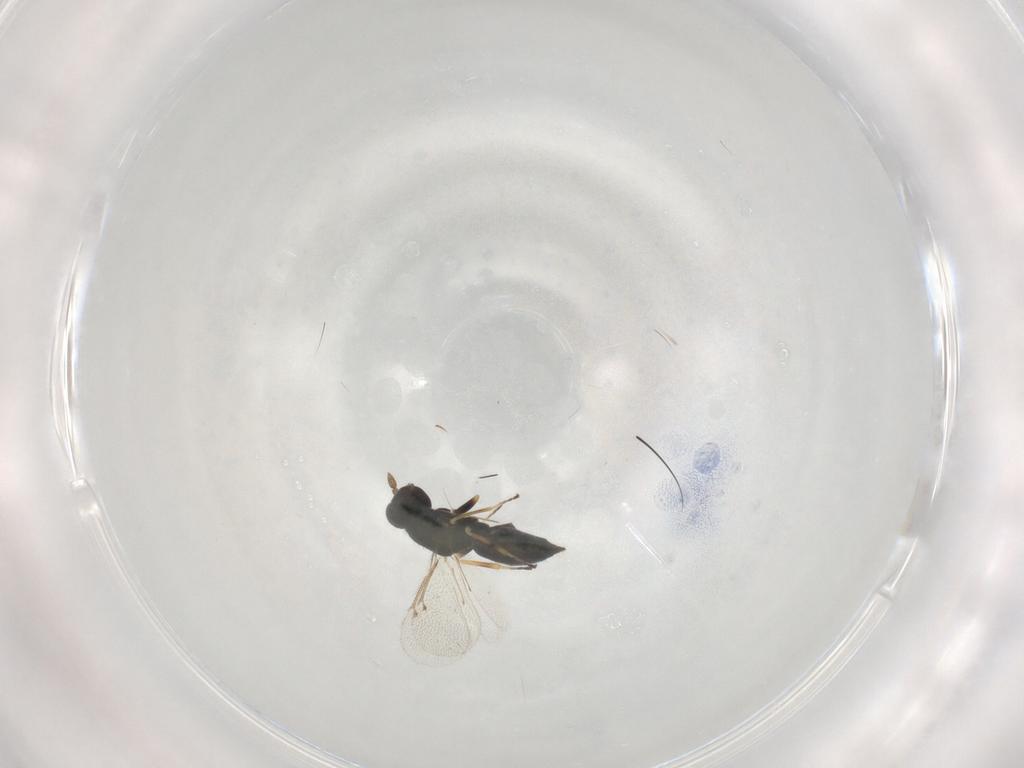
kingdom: Animalia
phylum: Arthropoda
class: Insecta
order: Hymenoptera
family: Eulophidae
